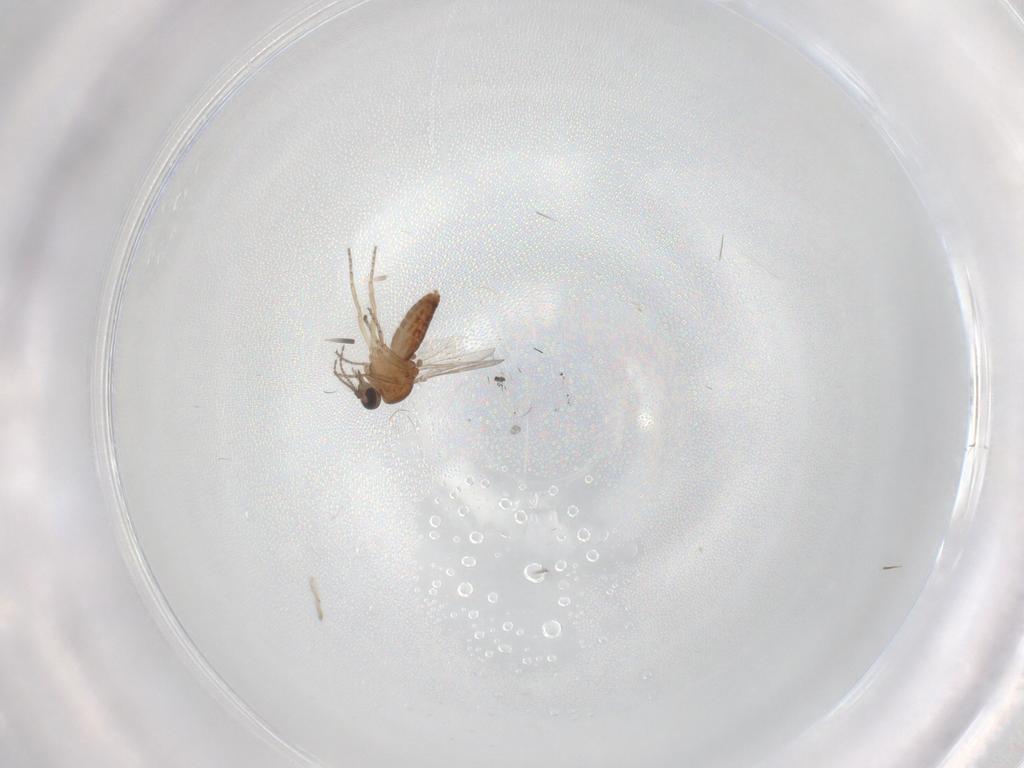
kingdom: Animalia
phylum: Arthropoda
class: Insecta
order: Diptera
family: Ceratopogonidae
